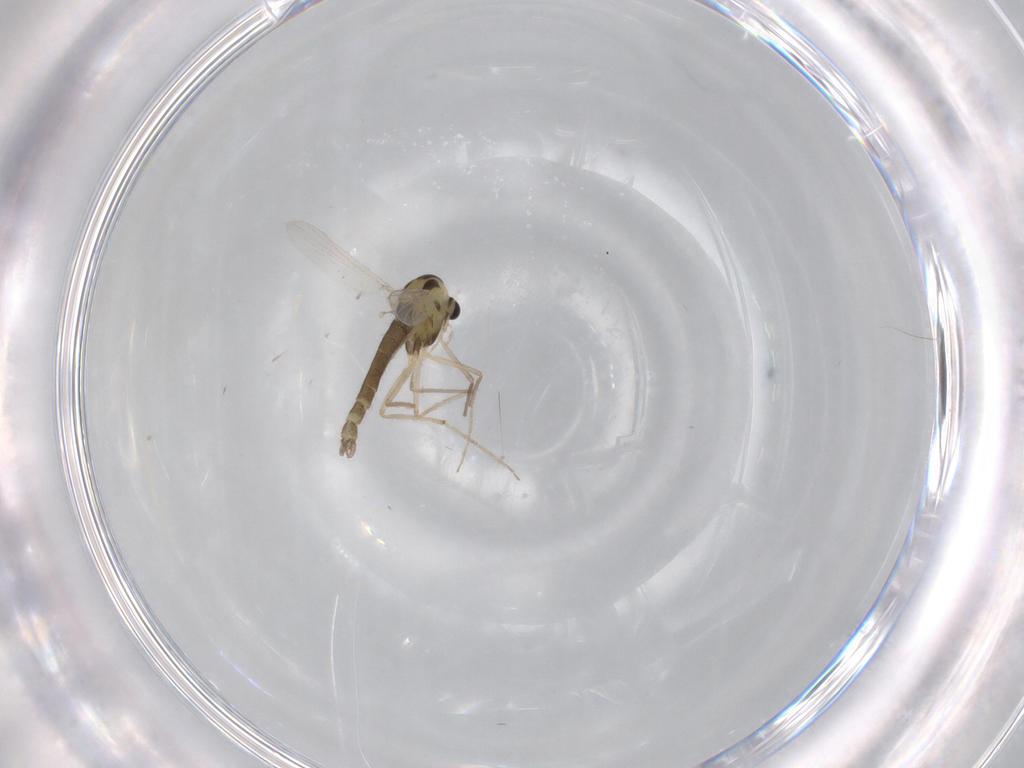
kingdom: Animalia
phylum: Arthropoda
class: Insecta
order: Diptera
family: Chironomidae
